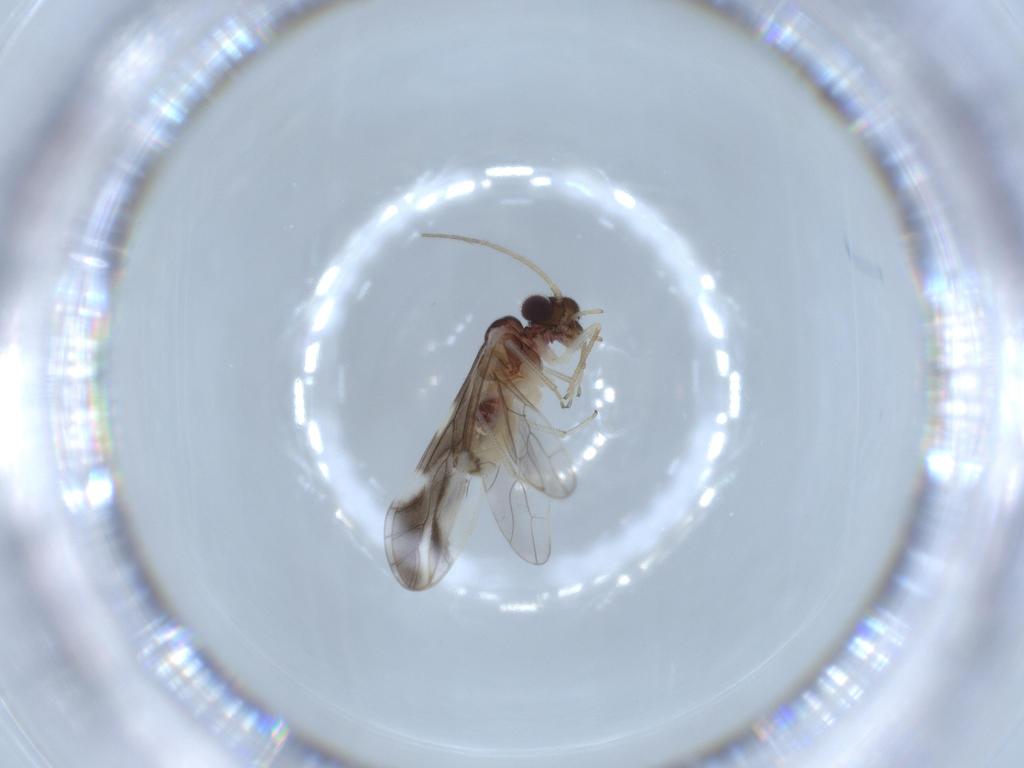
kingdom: Animalia
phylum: Arthropoda
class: Insecta
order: Psocodea
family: Caeciliusidae
